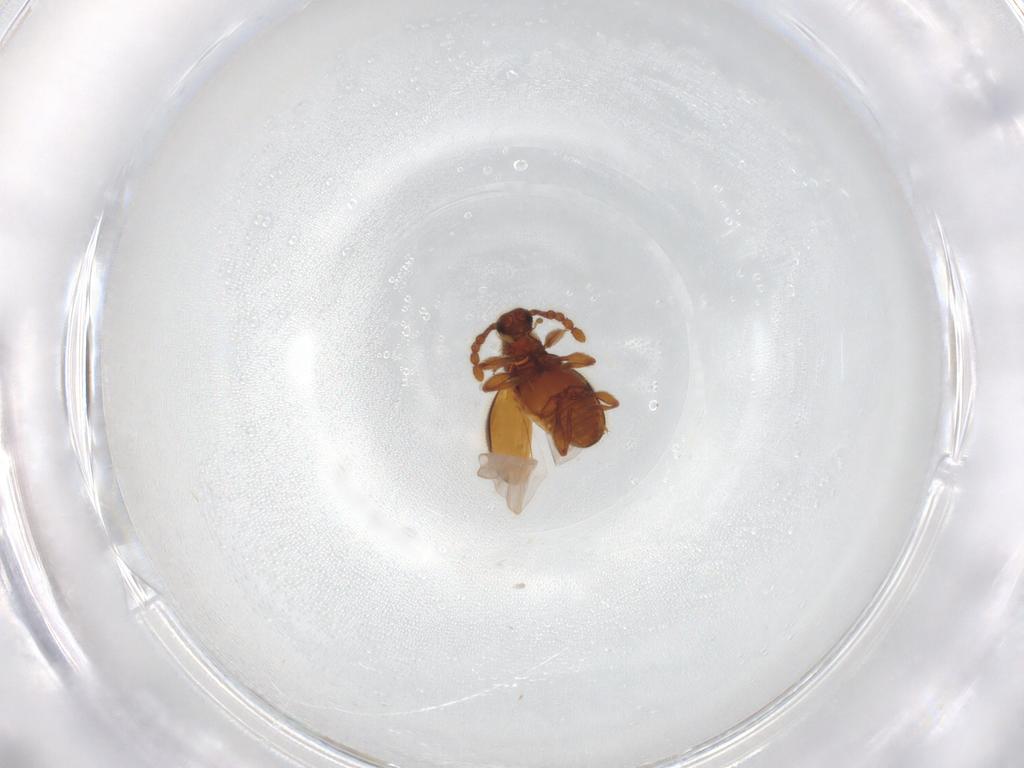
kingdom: Animalia
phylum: Arthropoda
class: Insecta
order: Coleoptera
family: Staphylinidae
